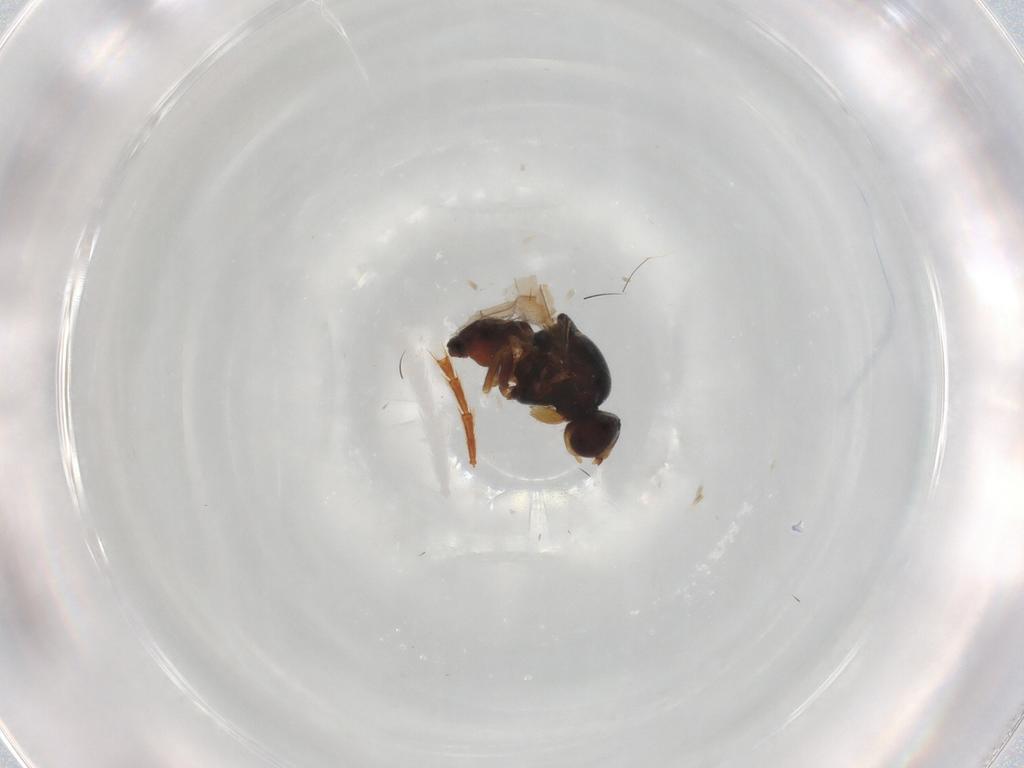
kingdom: Animalia
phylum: Arthropoda
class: Insecta
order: Diptera
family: Chloropidae
